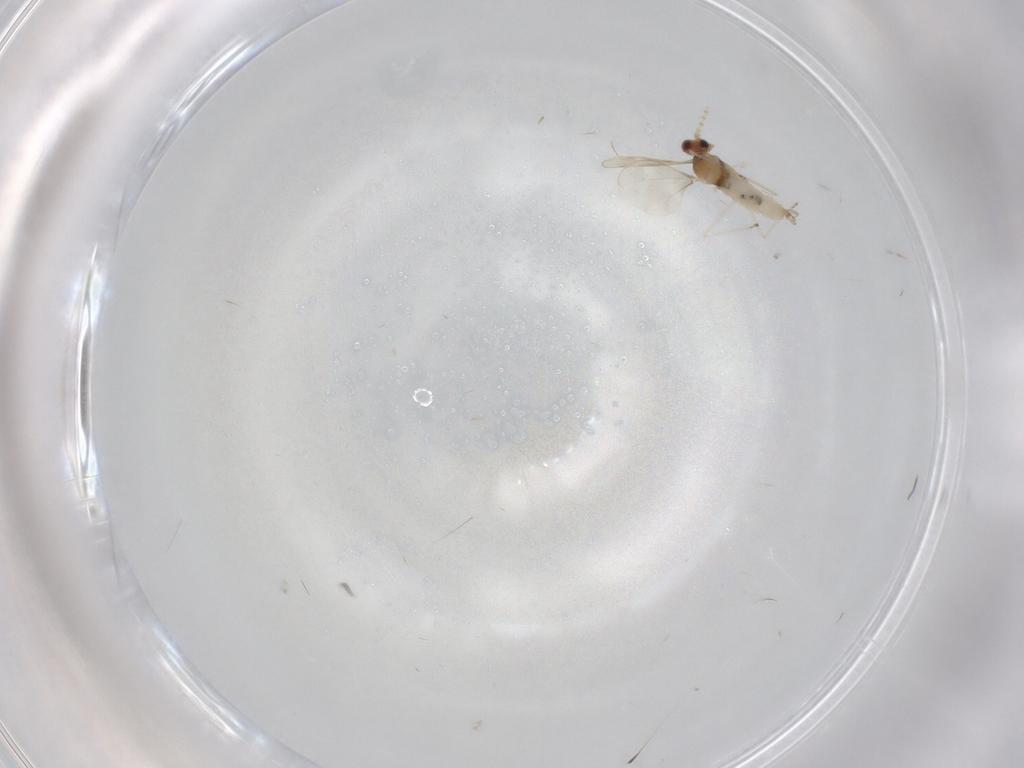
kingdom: Animalia
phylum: Arthropoda
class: Insecta
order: Diptera
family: Cecidomyiidae
